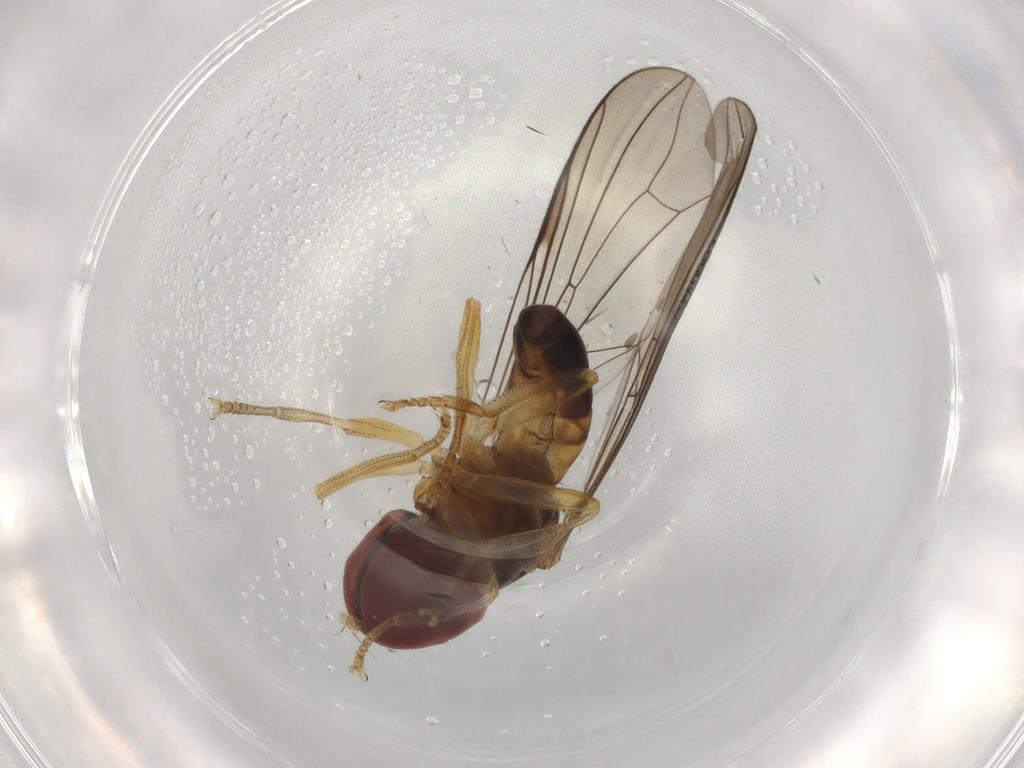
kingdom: Animalia
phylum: Arthropoda
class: Insecta
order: Diptera
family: Pipunculidae
